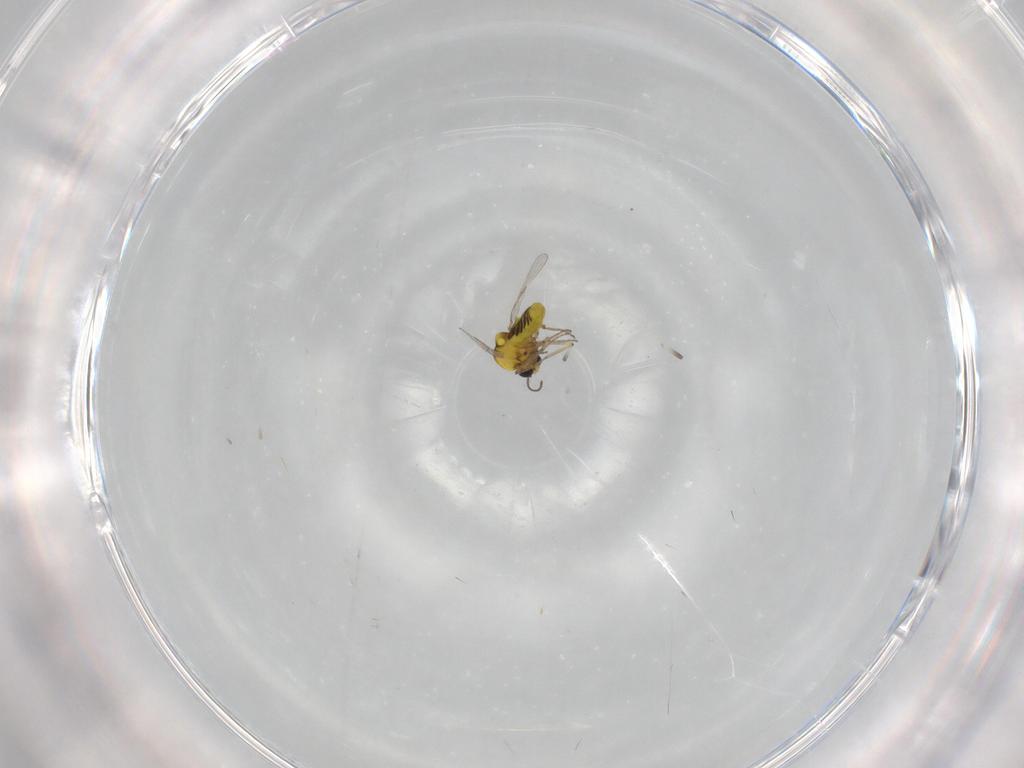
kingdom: Animalia
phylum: Arthropoda
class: Insecta
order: Diptera
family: Ceratopogonidae
